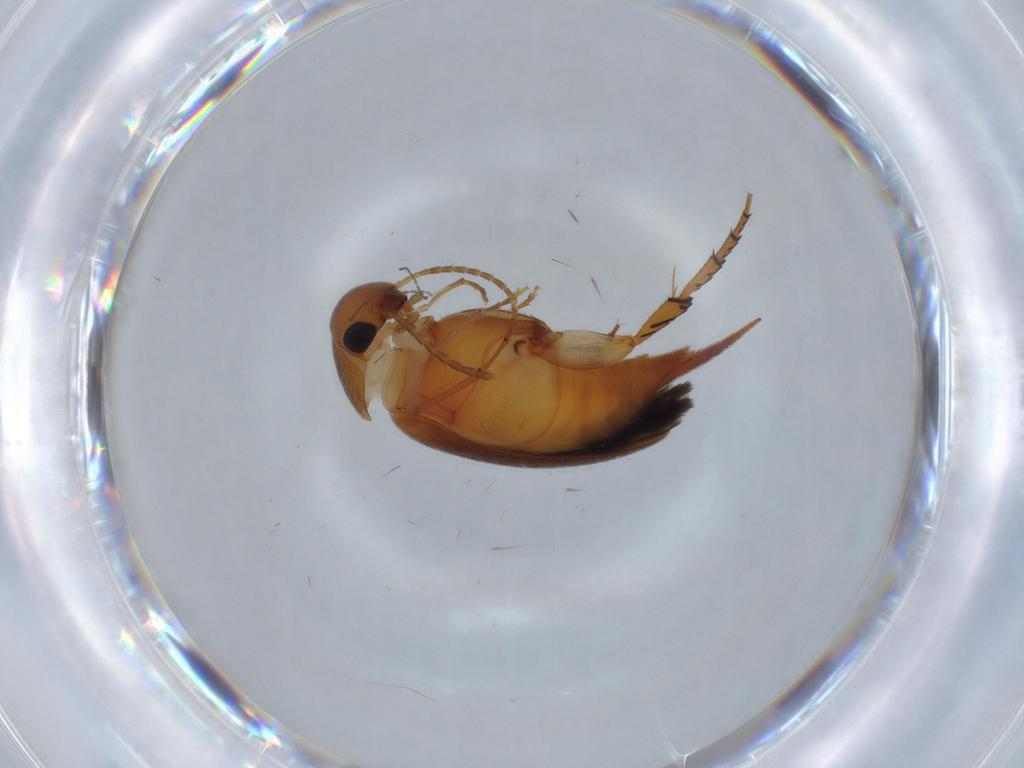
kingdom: Animalia
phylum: Arthropoda
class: Insecta
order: Coleoptera
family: Mordellidae
